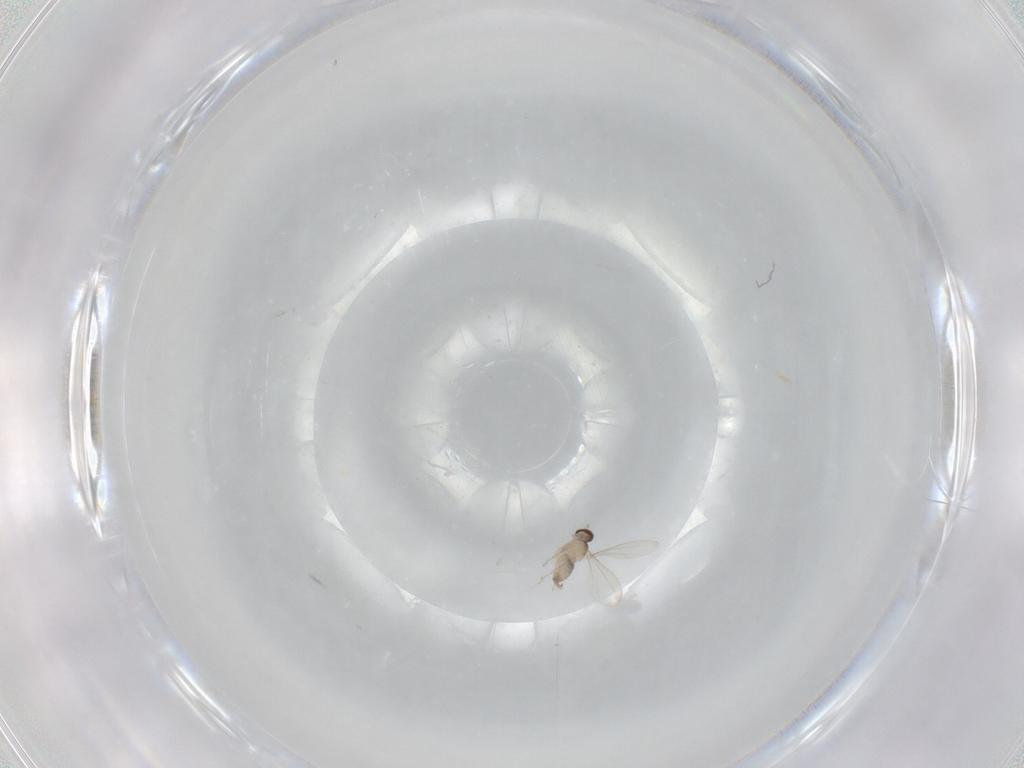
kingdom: Animalia
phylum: Arthropoda
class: Insecta
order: Diptera
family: Cecidomyiidae
